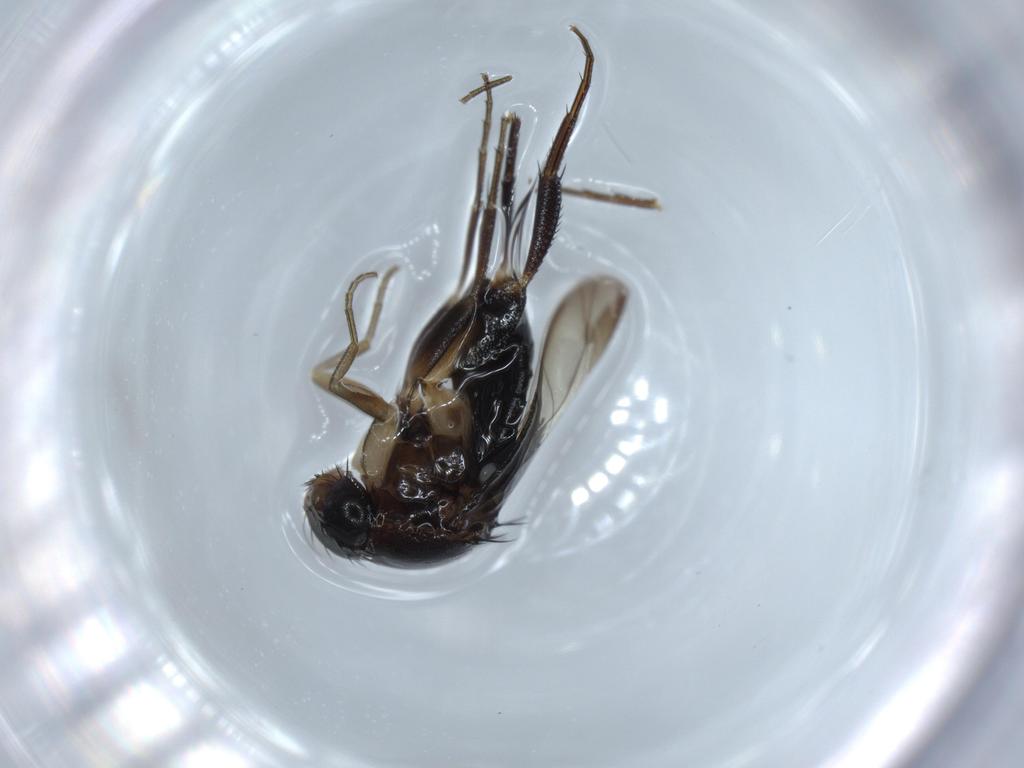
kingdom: Animalia
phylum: Arthropoda
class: Insecta
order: Diptera
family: Phoridae
